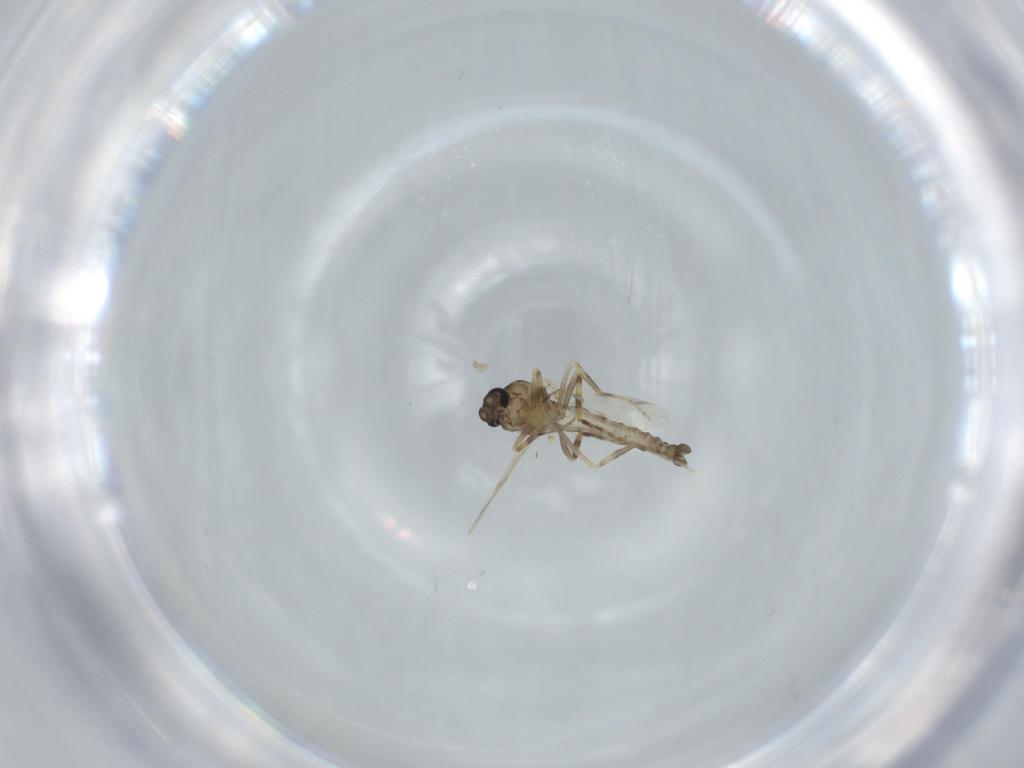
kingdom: Animalia
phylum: Arthropoda
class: Insecta
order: Diptera
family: Ceratopogonidae
